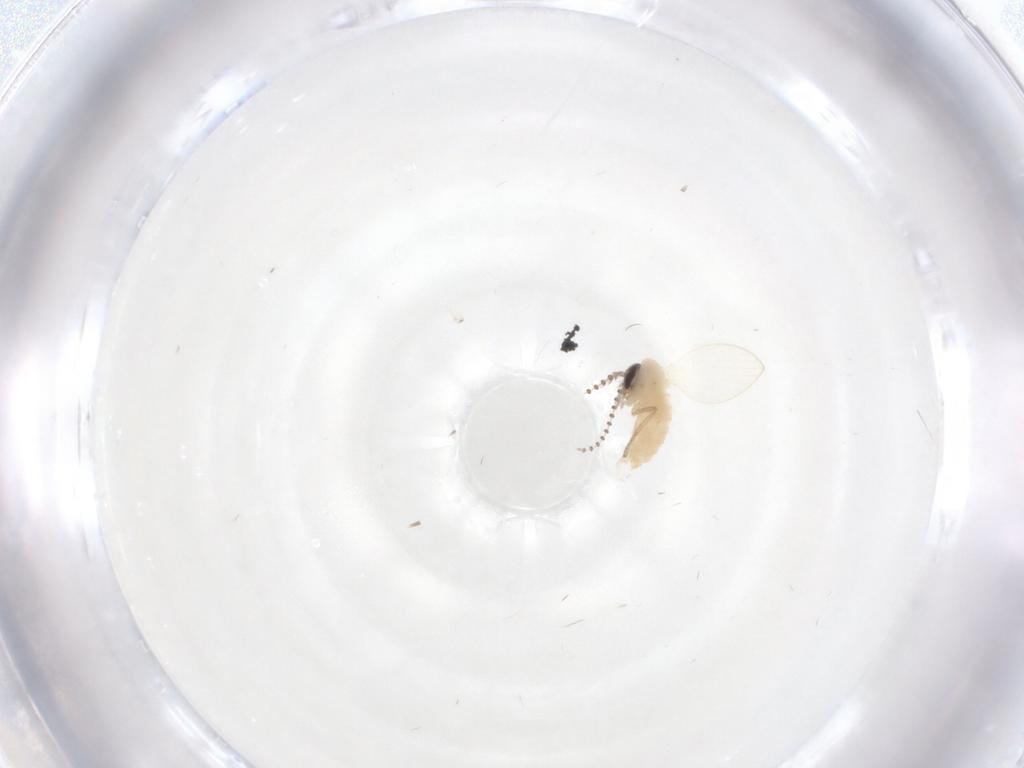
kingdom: Animalia
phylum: Arthropoda
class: Insecta
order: Diptera
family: Psychodidae
